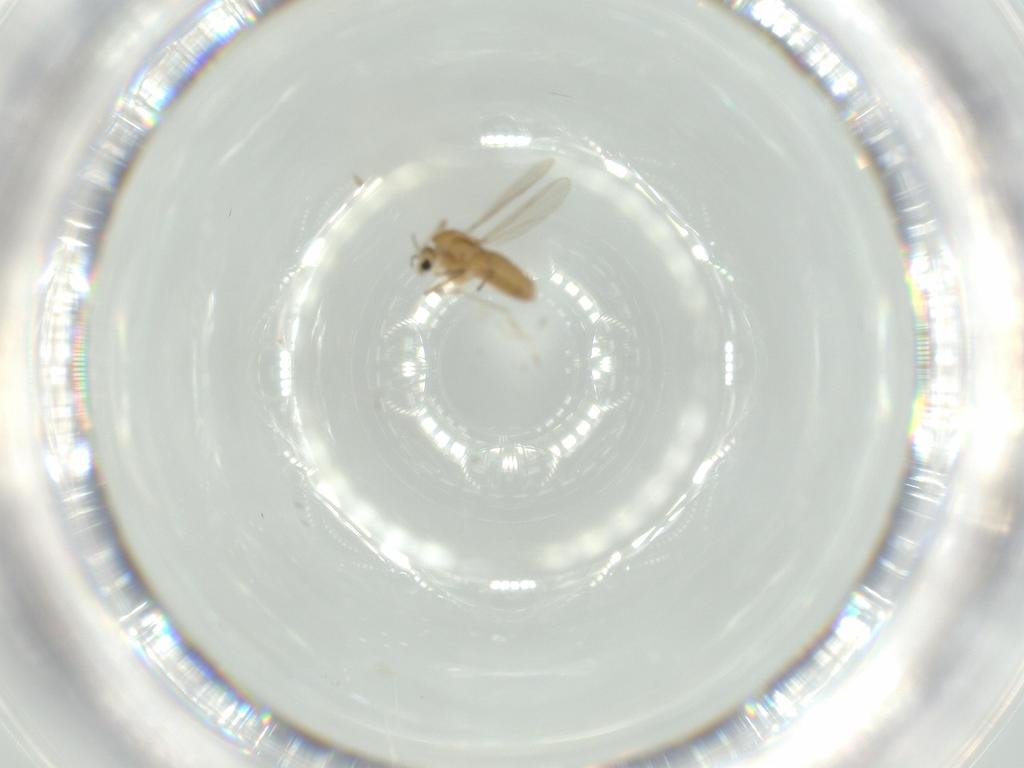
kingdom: Animalia
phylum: Arthropoda
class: Insecta
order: Diptera
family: Chironomidae
